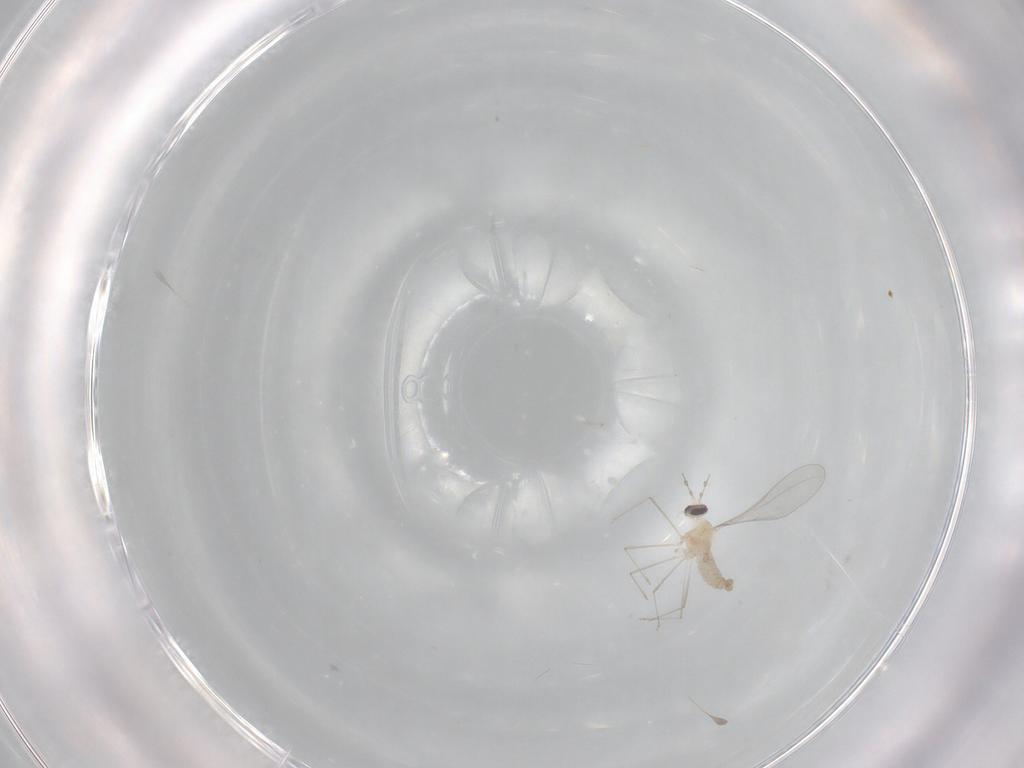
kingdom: Animalia
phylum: Arthropoda
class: Insecta
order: Diptera
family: Cecidomyiidae
